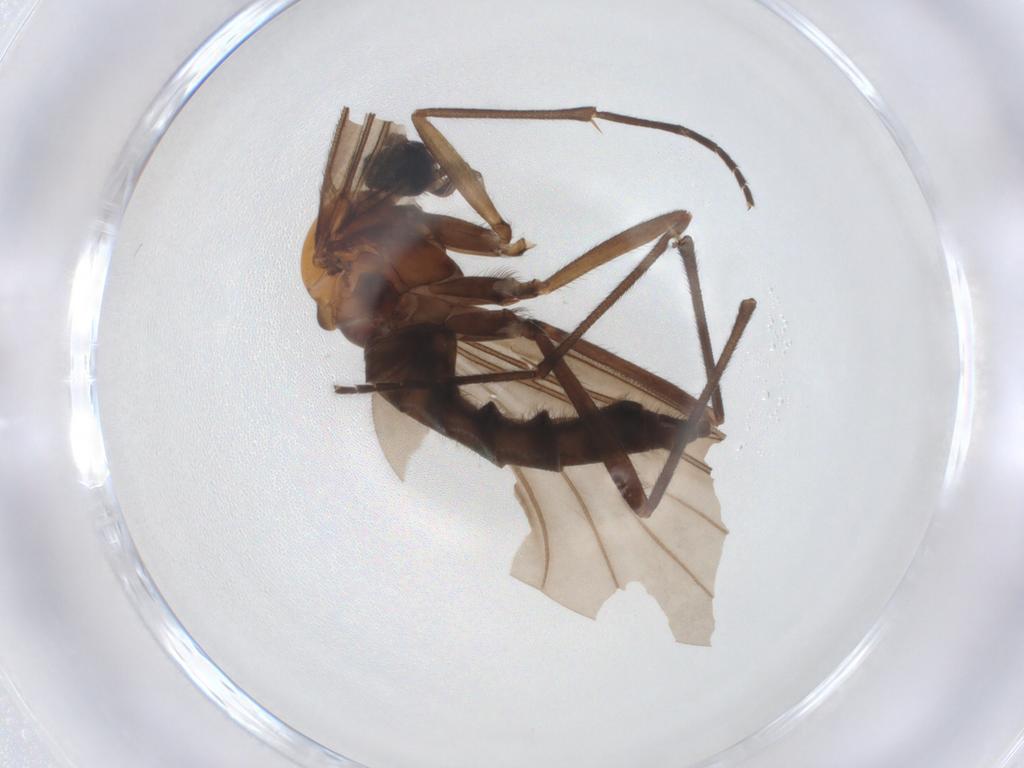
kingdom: Animalia
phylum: Arthropoda
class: Insecta
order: Diptera
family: Sciaridae
